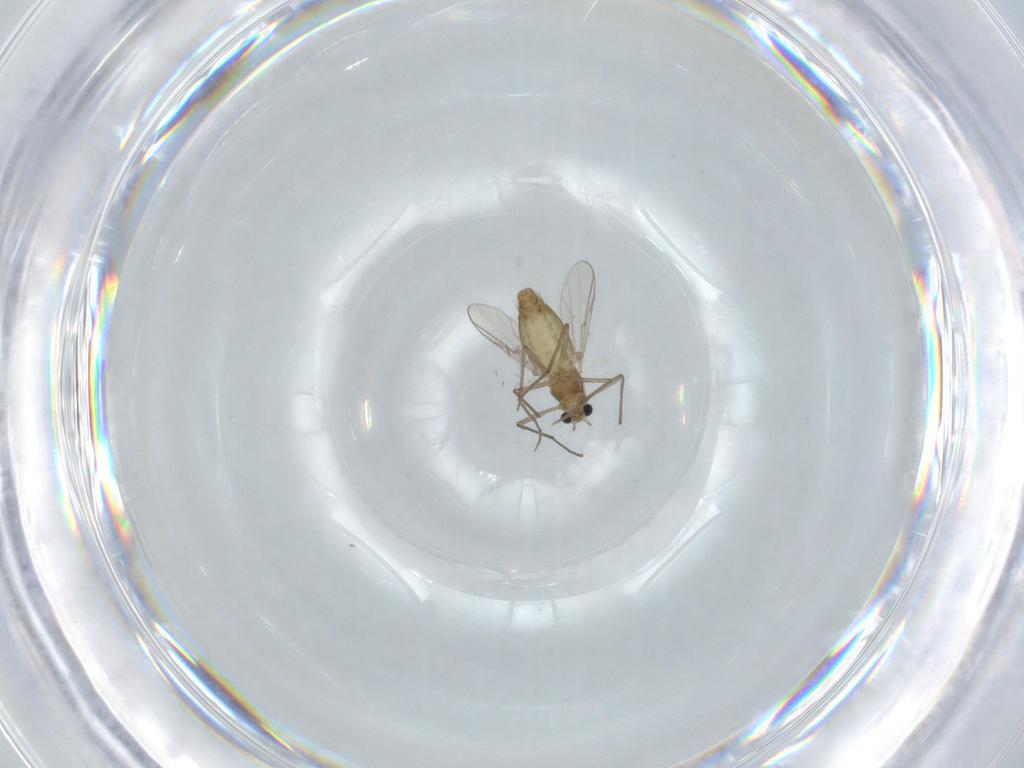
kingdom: Animalia
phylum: Arthropoda
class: Insecta
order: Diptera
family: Chironomidae
